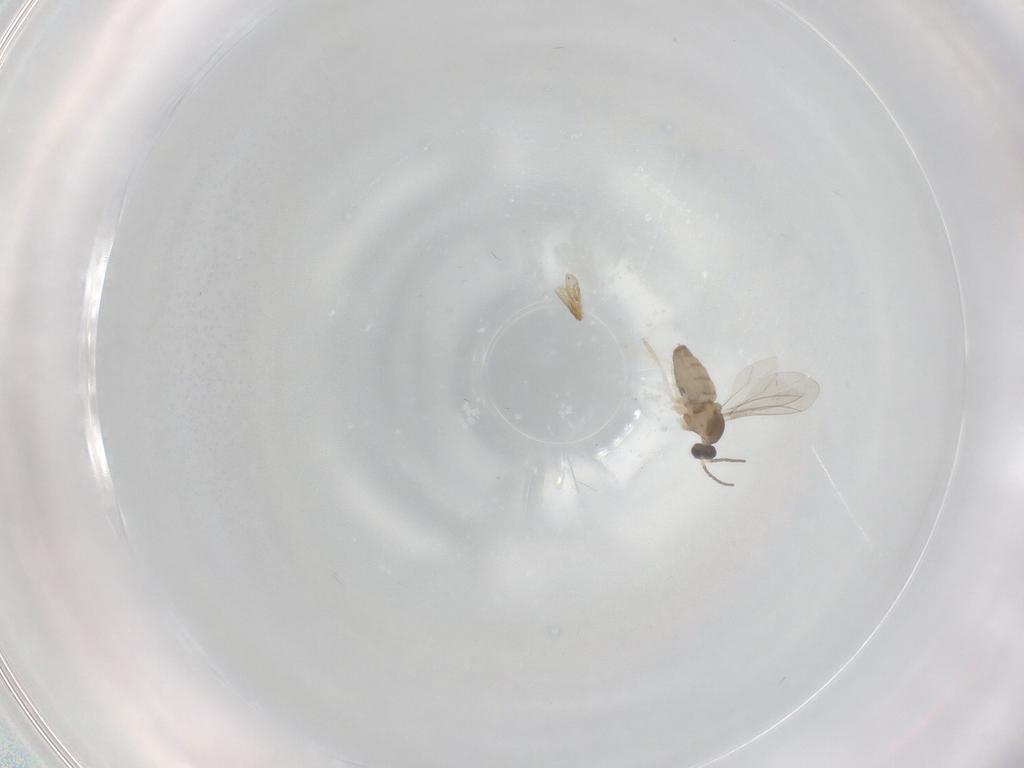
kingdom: Animalia
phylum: Arthropoda
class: Insecta
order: Diptera
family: Cecidomyiidae
